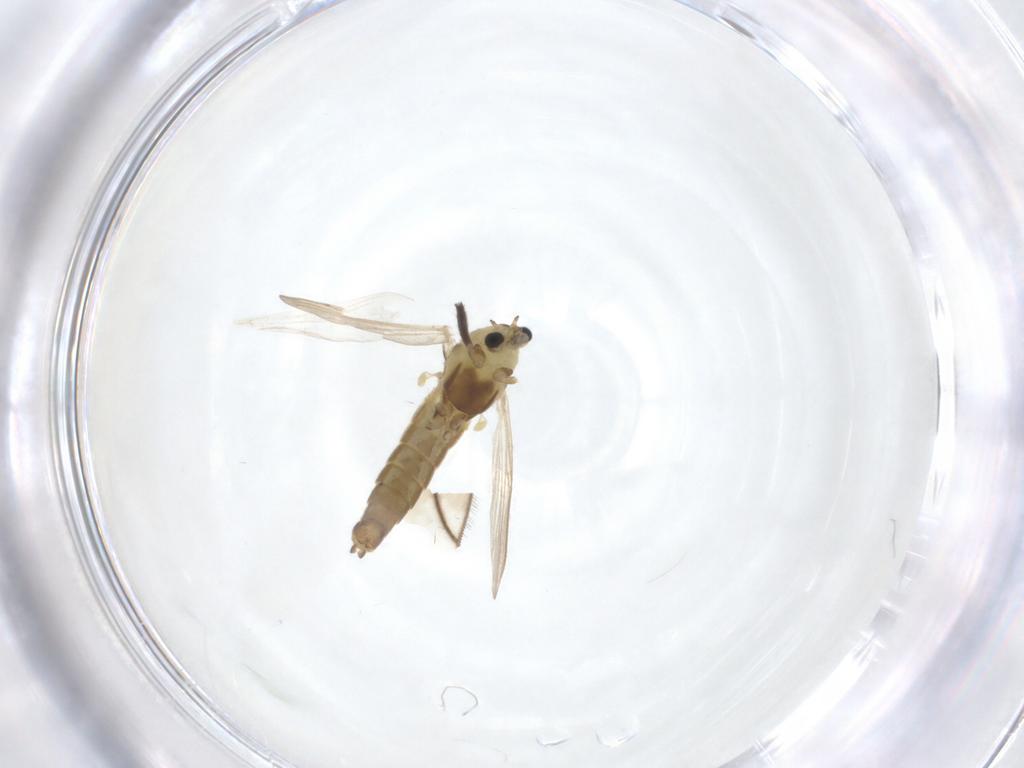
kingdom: Animalia
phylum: Arthropoda
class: Insecta
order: Diptera
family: Chironomidae
